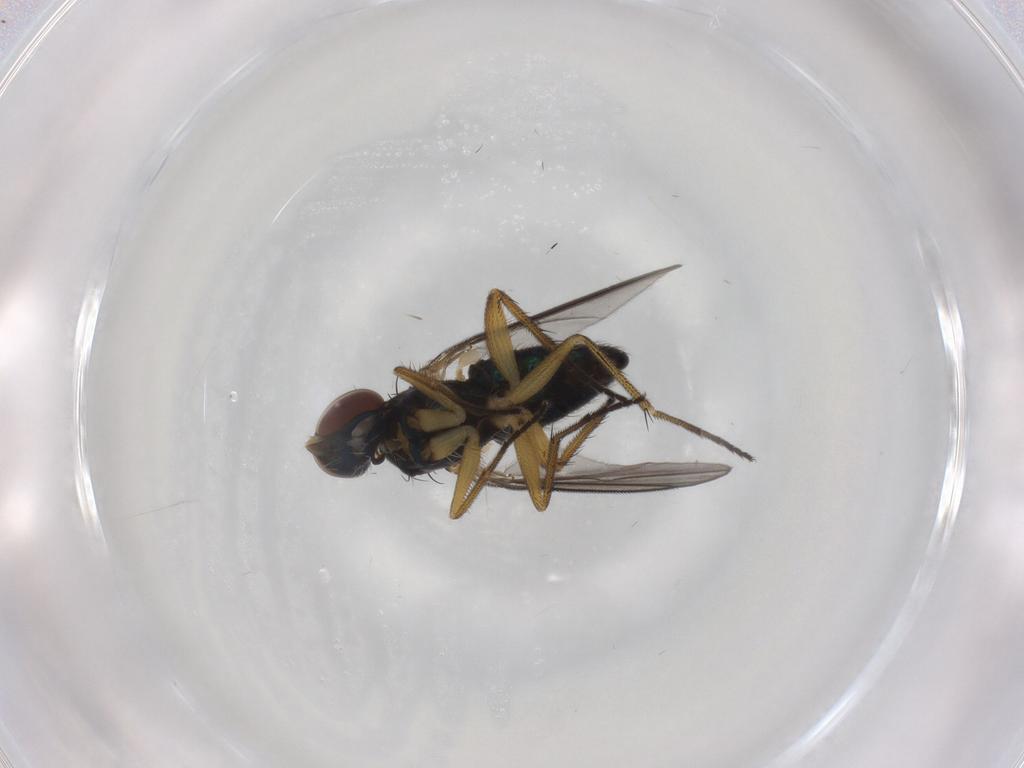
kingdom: Animalia
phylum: Arthropoda
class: Insecta
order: Diptera
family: Dolichopodidae
